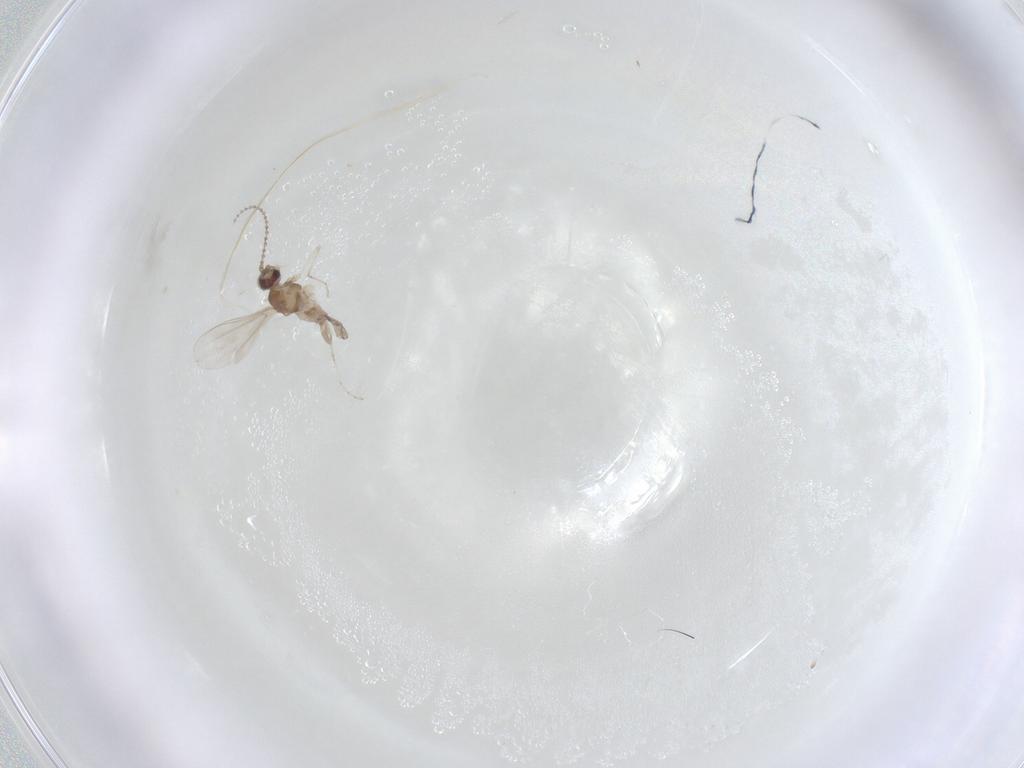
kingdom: Animalia
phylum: Arthropoda
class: Insecta
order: Diptera
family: Cecidomyiidae
